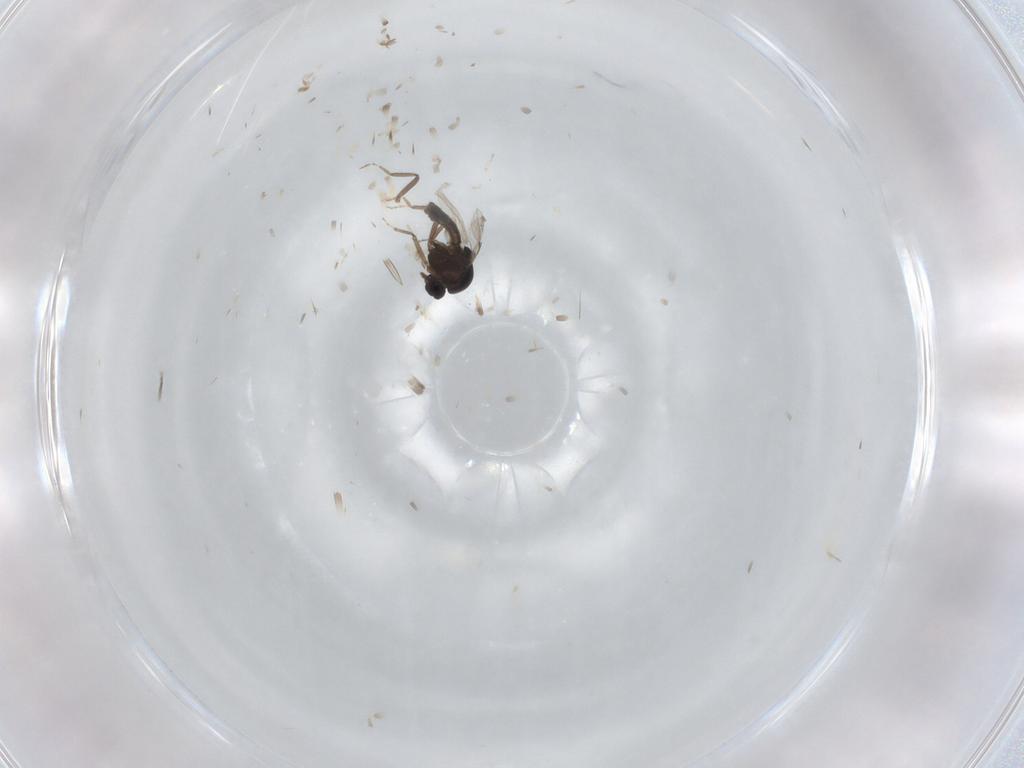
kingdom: Animalia
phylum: Arthropoda
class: Insecta
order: Diptera
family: Ceratopogonidae
